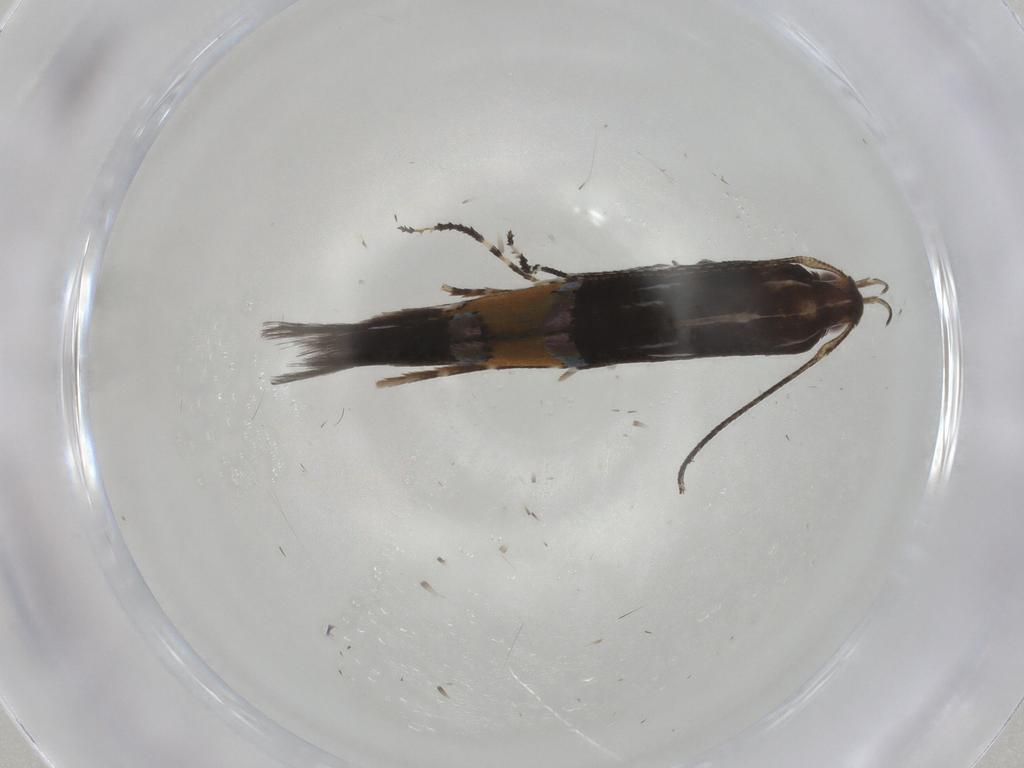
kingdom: Animalia
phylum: Arthropoda
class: Insecta
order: Lepidoptera
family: Cosmopterigidae
